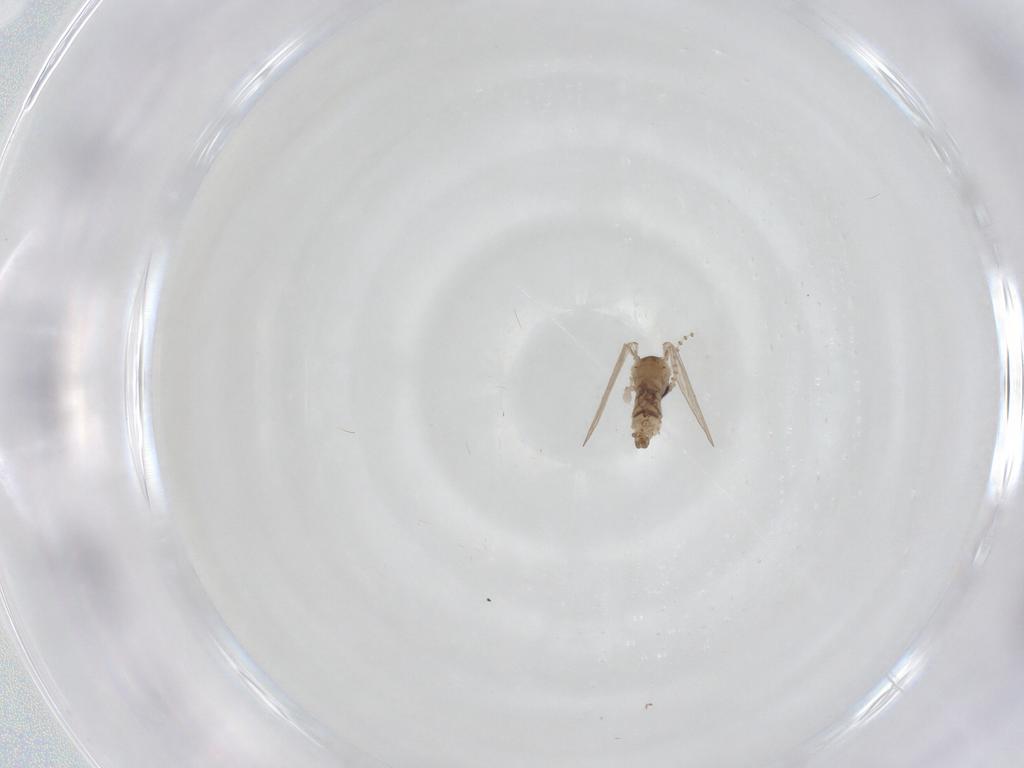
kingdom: Animalia
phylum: Arthropoda
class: Insecta
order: Diptera
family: Psychodidae
